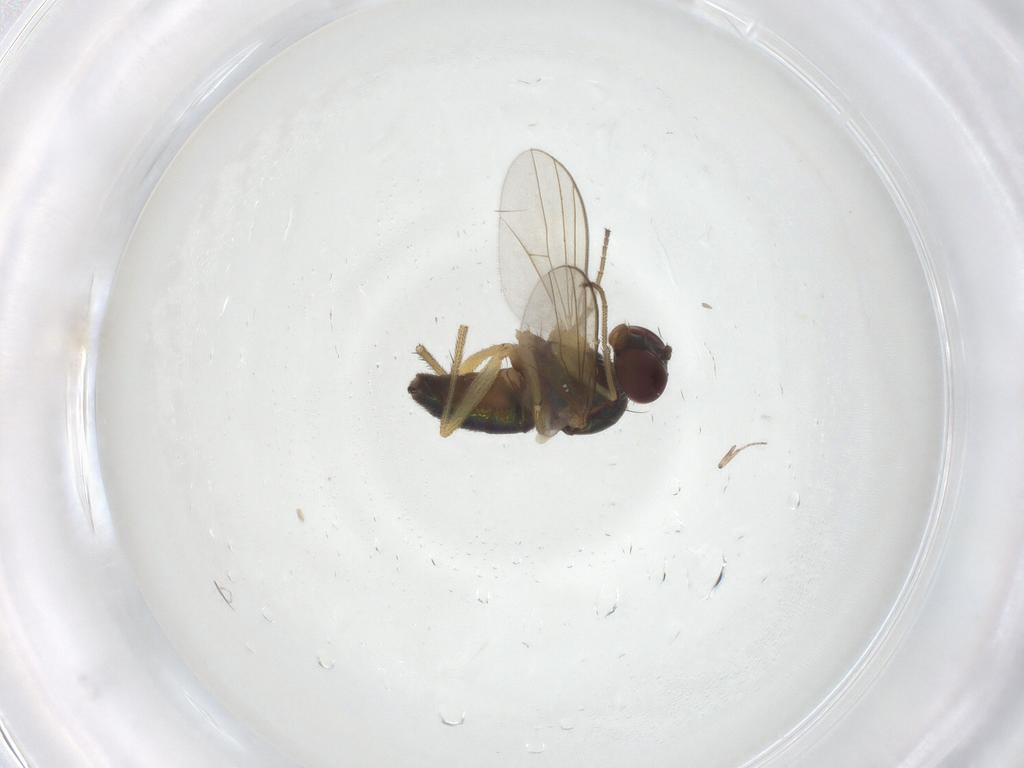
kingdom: Animalia
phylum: Arthropoda
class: Insecta
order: Diptera
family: Dolichopodidae
